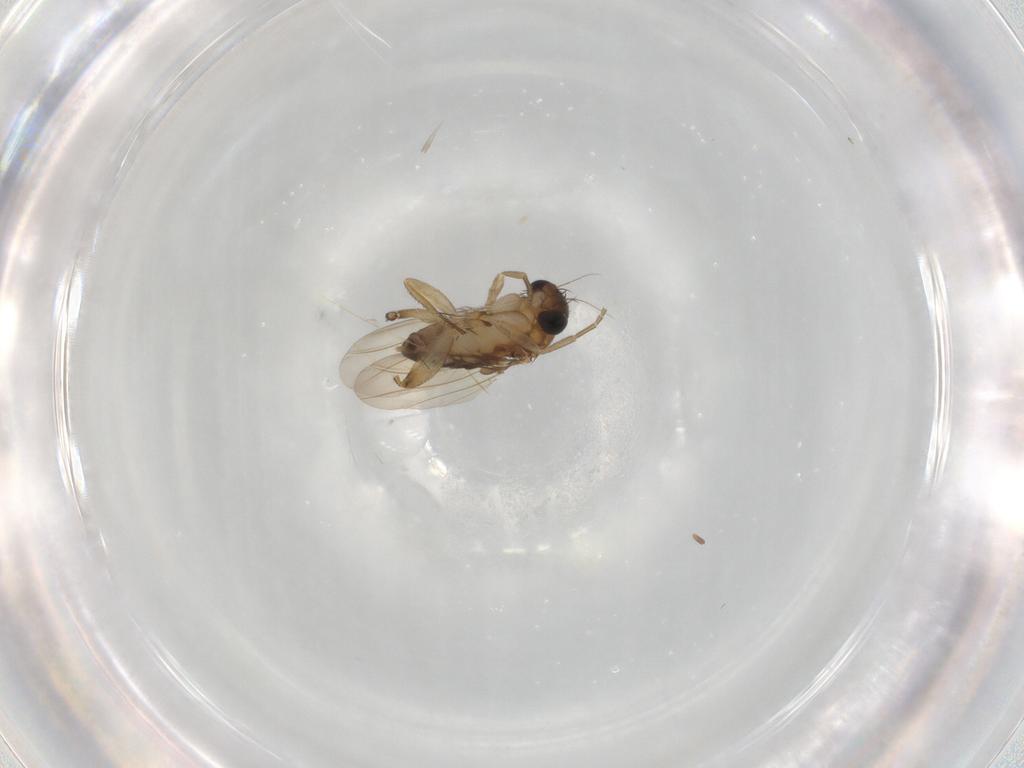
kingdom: Animalia
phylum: Arthropoda
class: Insecta
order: Diptera
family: Phoridae
